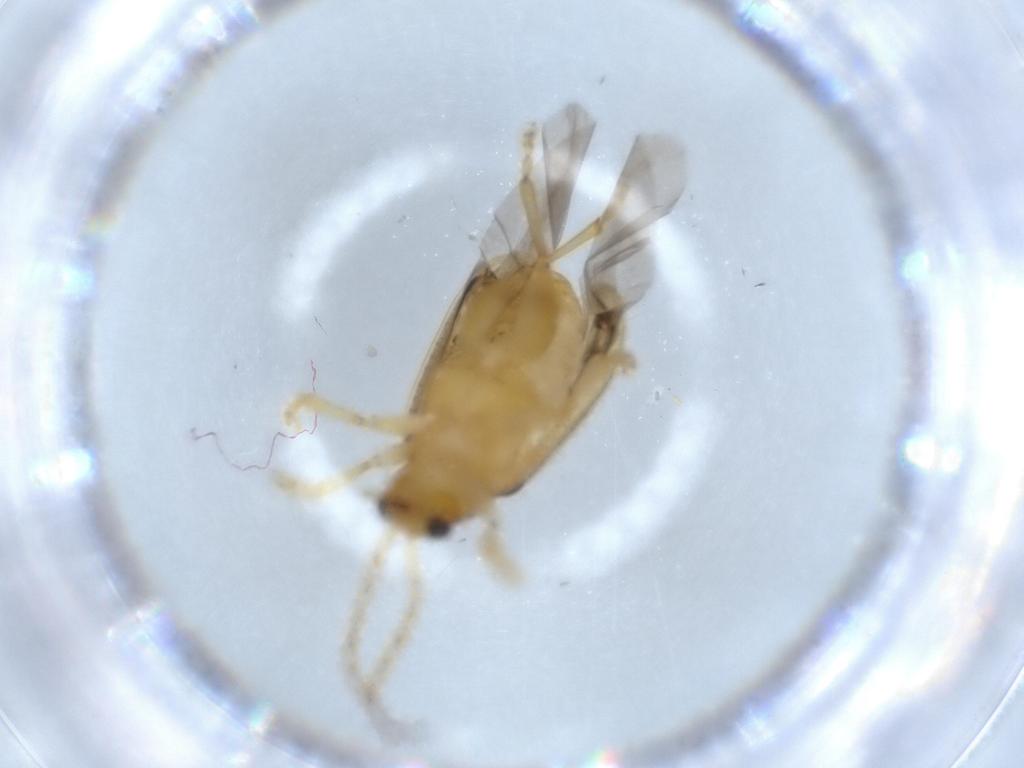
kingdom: Animalia
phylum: Arthropoda
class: Insecta
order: Coleoptera
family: Chrysomelidae
